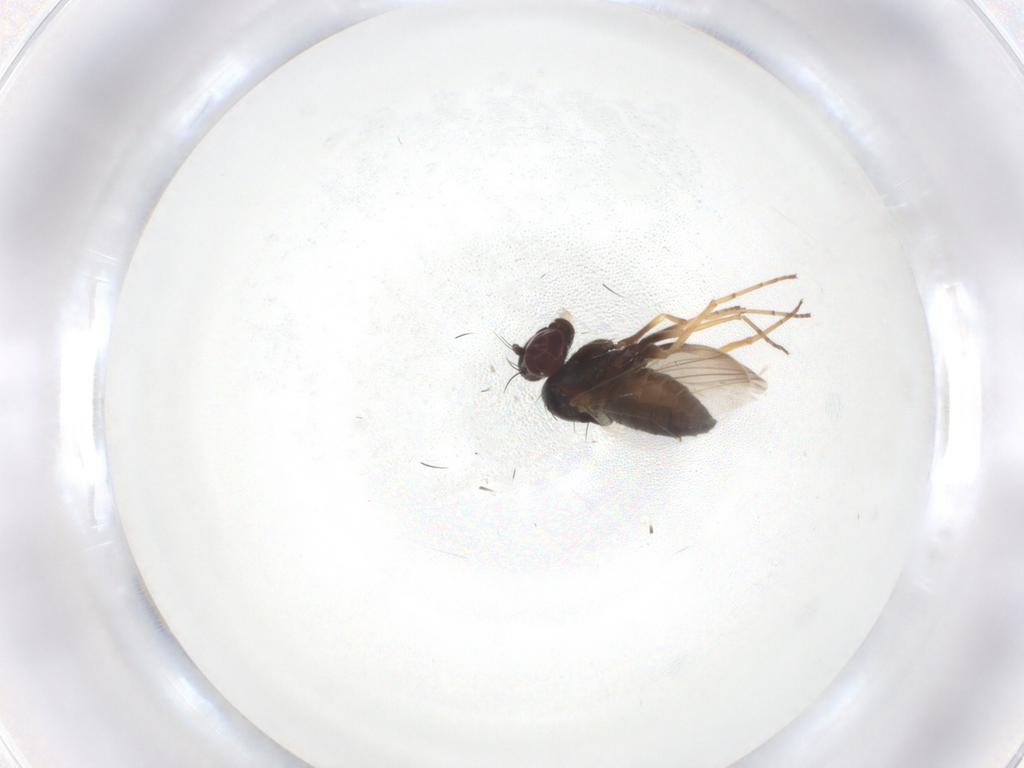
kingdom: Animalia
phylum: Arthropoda
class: Insecta
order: Diptera
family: Dolichopodidae
